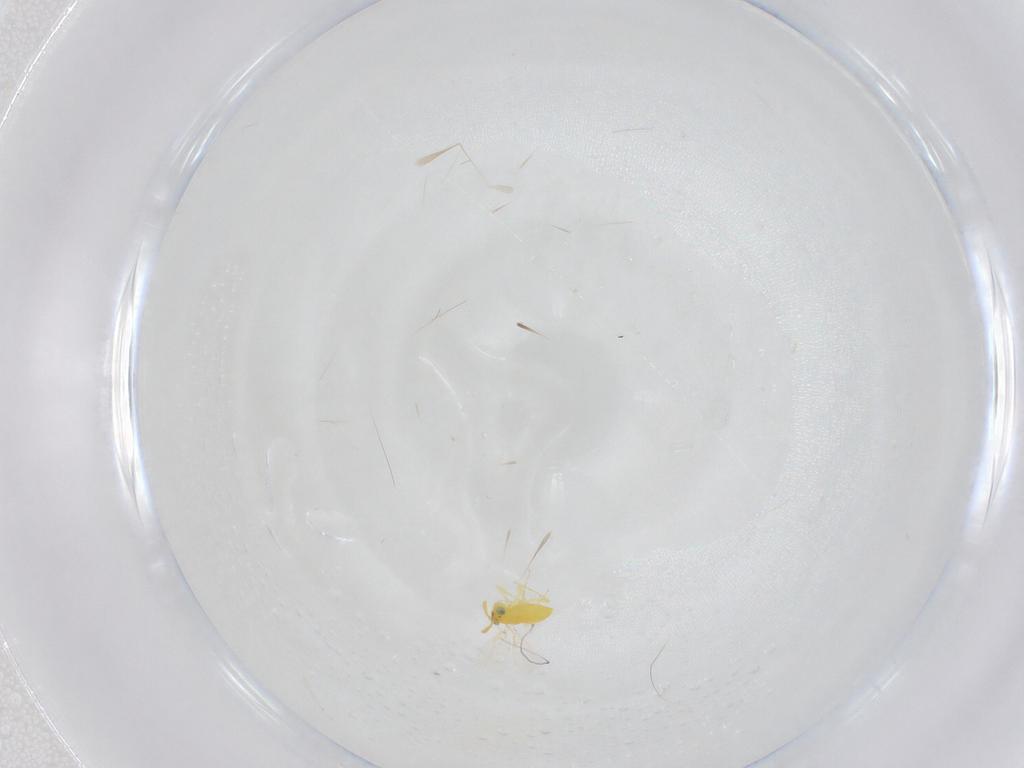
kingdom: Animalia
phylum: Arthropoda
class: Insecta
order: Hymenoptera
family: Aphelinidae
